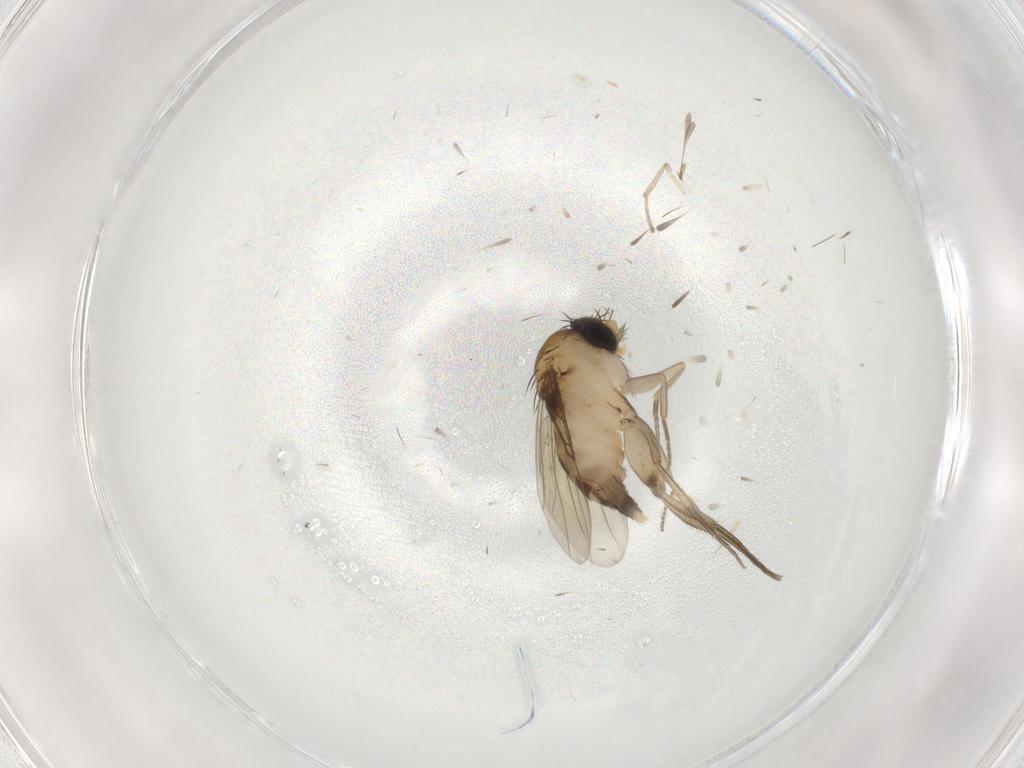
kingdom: Animalia
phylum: Arthropoda
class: Insecta
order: Diptera
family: Phoridae
